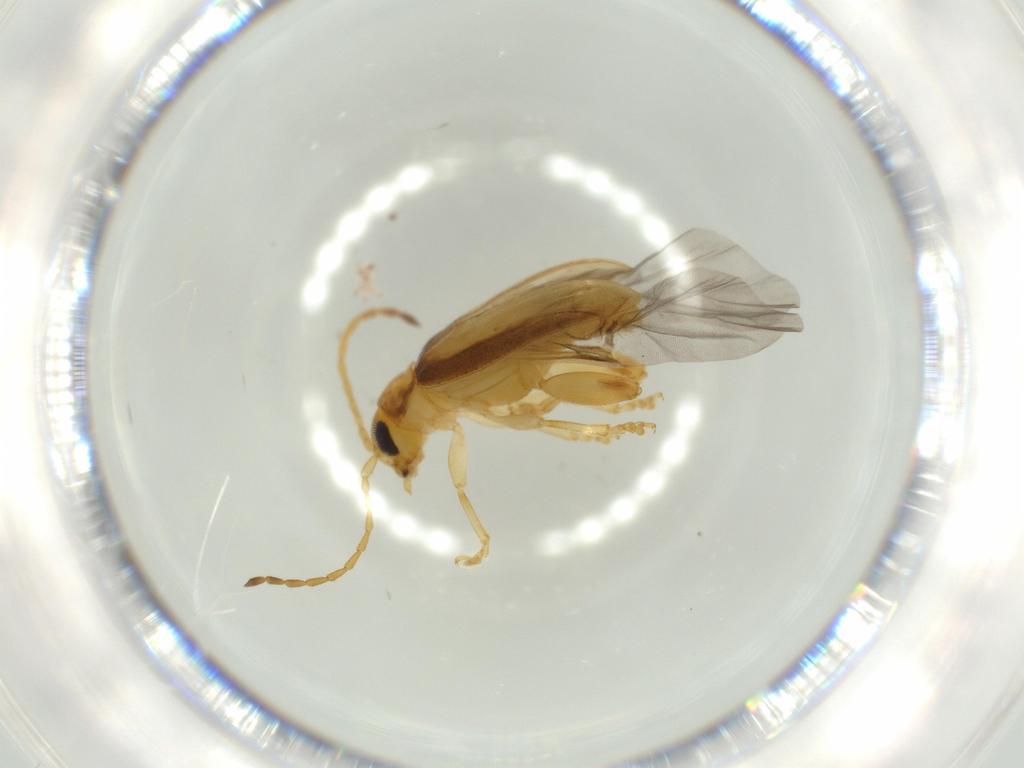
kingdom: Animalia
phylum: Arthropoda
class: Insecta
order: Coleoptera
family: Chrysomelidae
